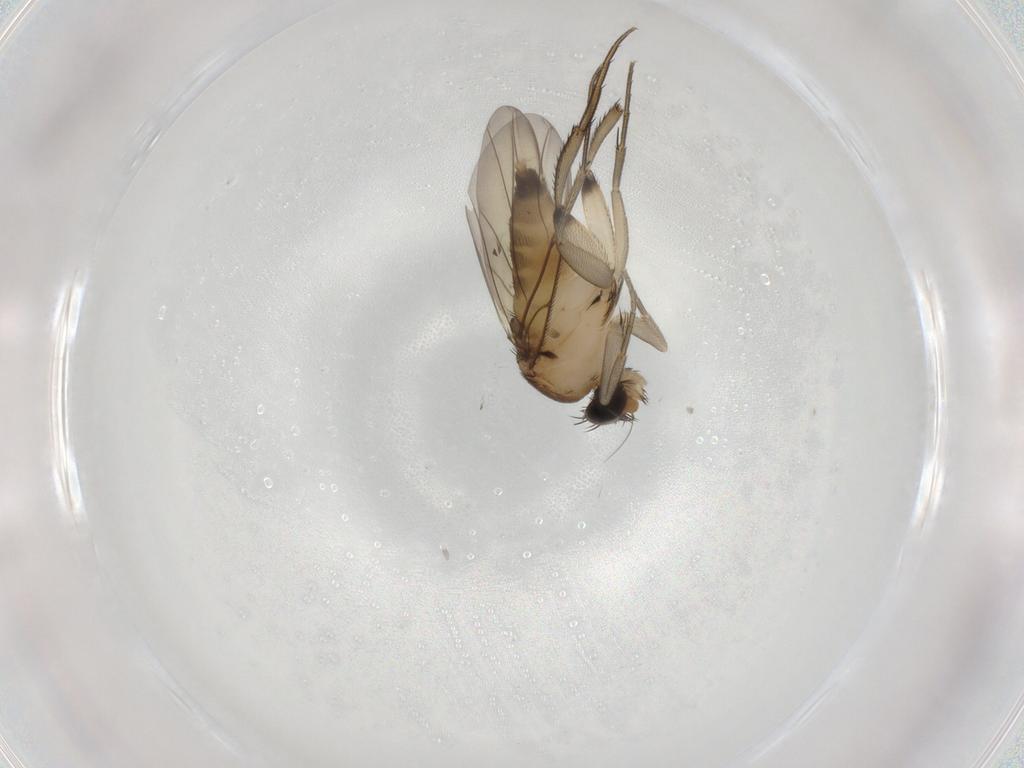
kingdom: Animalia
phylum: Arthropoda
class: Insecta
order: Diptera
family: Phoridae
